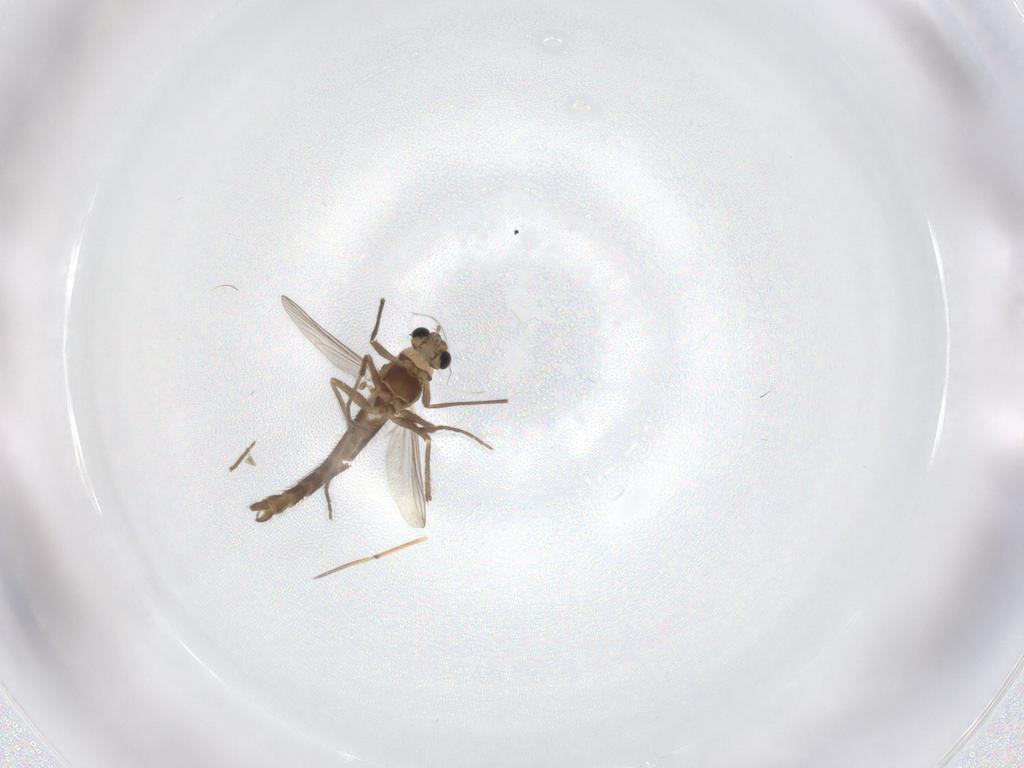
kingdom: Animalia
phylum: Arthropoda
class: Insecta
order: Diptera
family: Chironomidae
